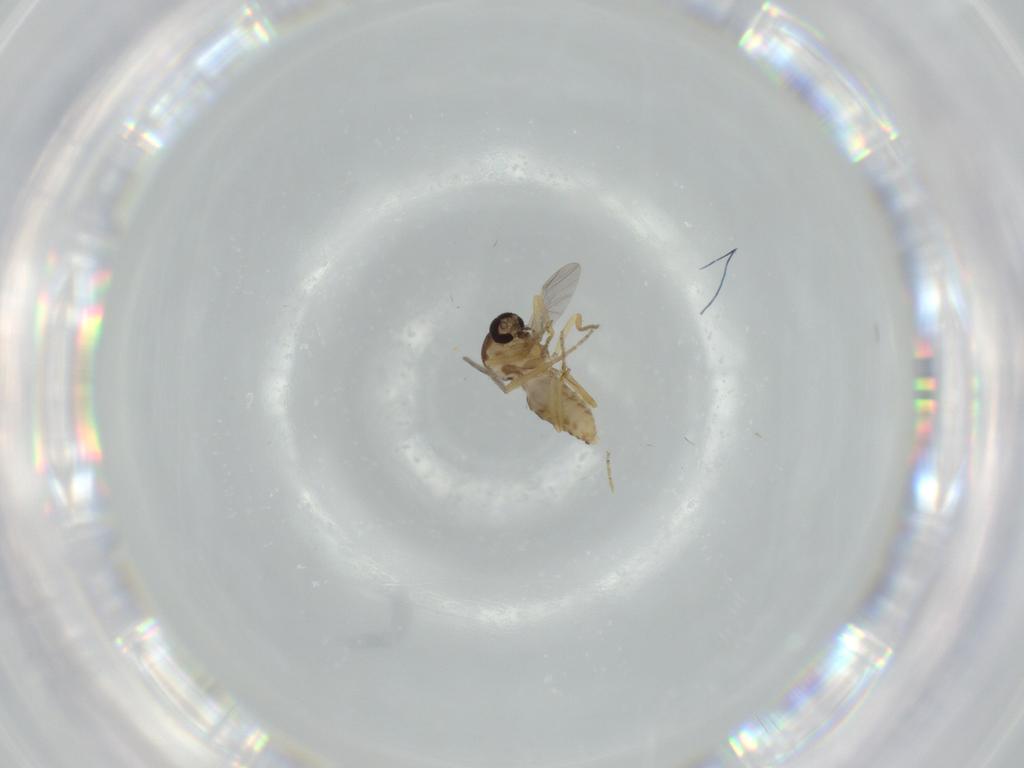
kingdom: Animalia
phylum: Arthropoda
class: Insecta
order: Diptera
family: Ceratopogonidae
